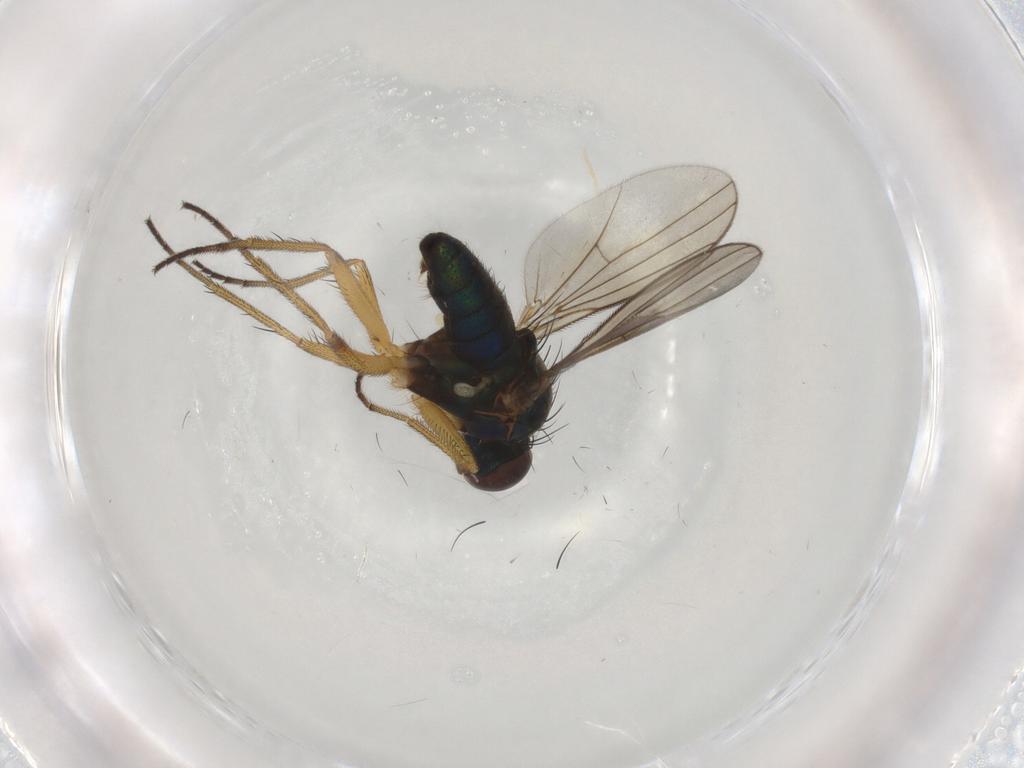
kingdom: Animalia
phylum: Arthropoda
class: Insecta
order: Diptera
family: Dolichopodidae
